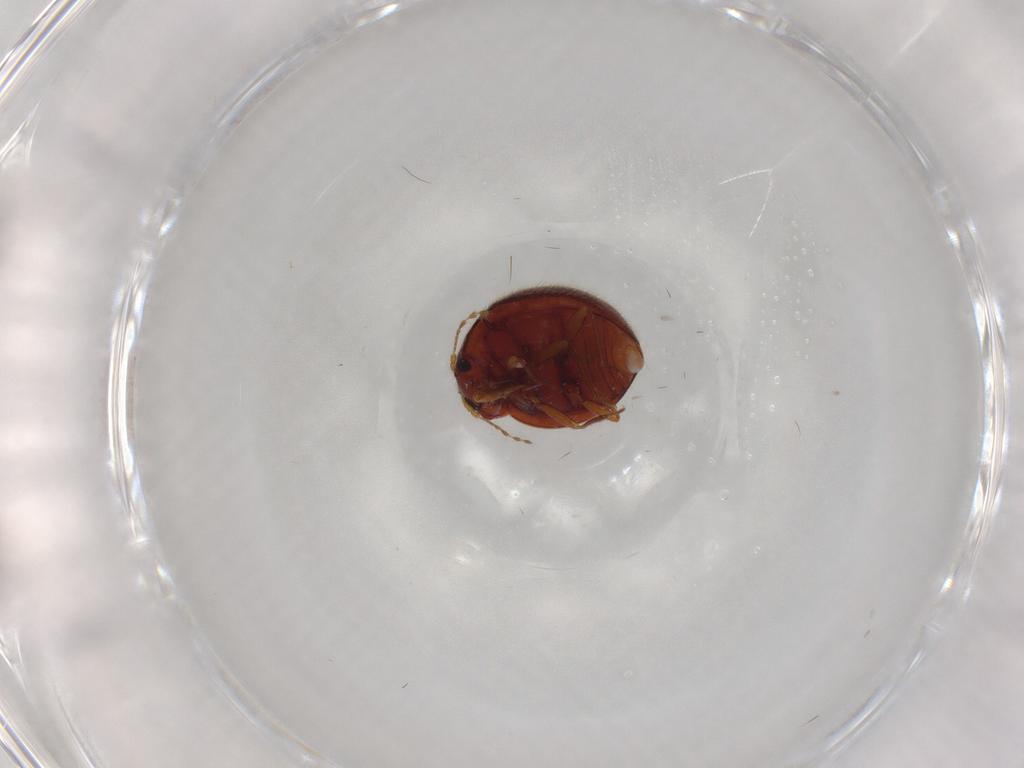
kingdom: Animalia
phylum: Arthropoda
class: Insecta
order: Coleoptera
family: Anamorphidae
